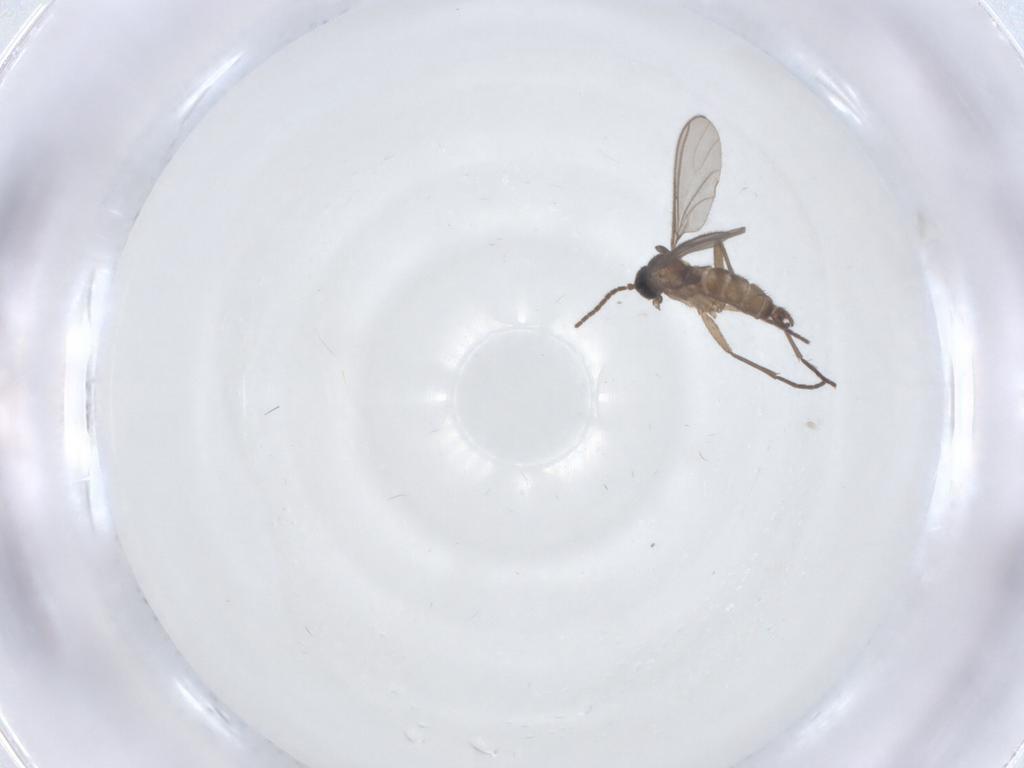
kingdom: Animalia
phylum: Arthropoda
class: Insecta
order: Diptera
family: Sciaridae
